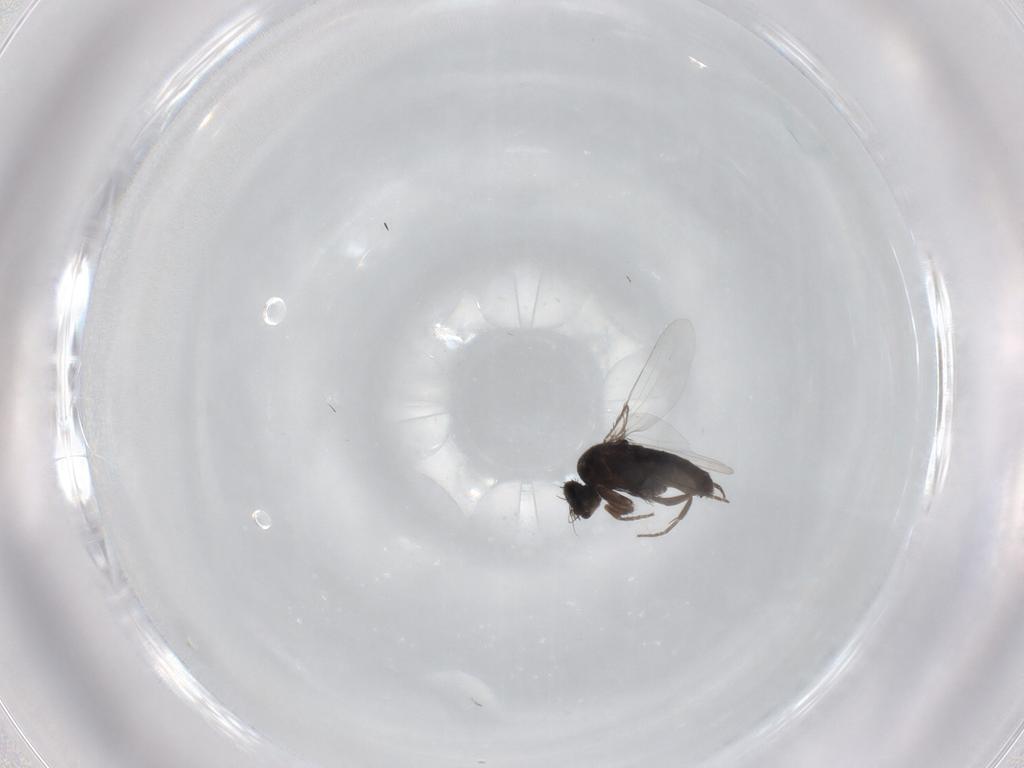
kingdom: Animalia
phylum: Arthropoda
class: Insecta
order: Diptera
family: Phoridae
